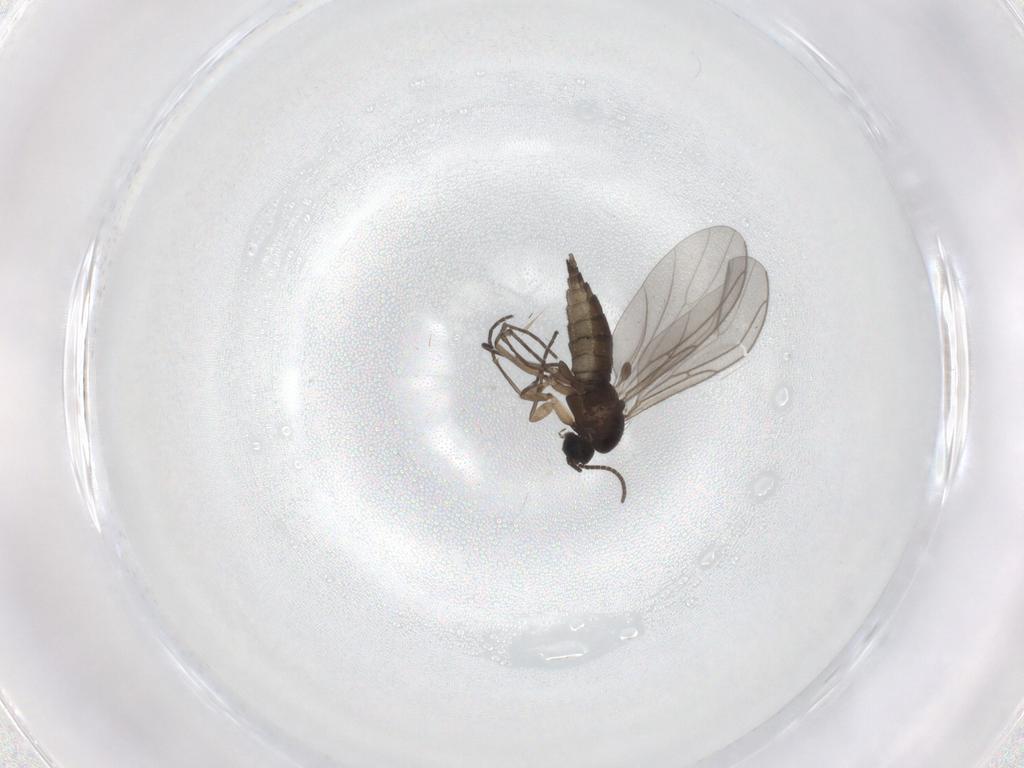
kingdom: Animalia
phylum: Arthropoda
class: Insecta
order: Diptera
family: Sciaridae
